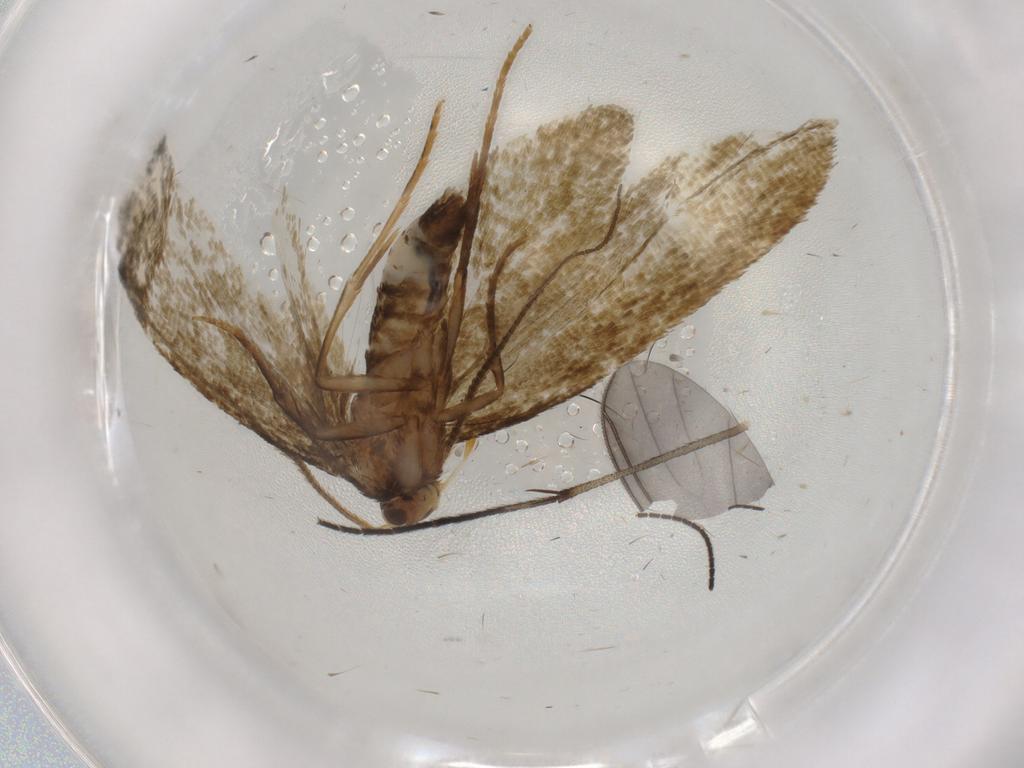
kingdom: Animalia
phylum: Arthropoda
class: Insecta
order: Lepidoptera
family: Tineidae
